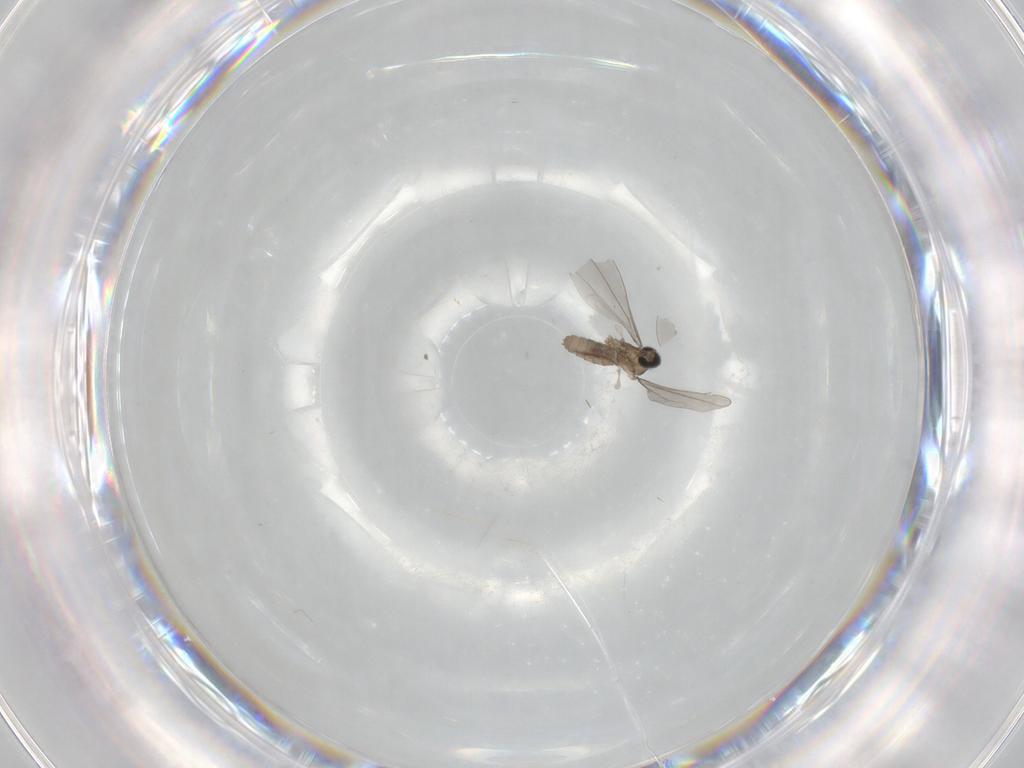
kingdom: Animalia
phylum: Arthropoda
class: Insecta
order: Diptera
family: Cecidomyiidae
